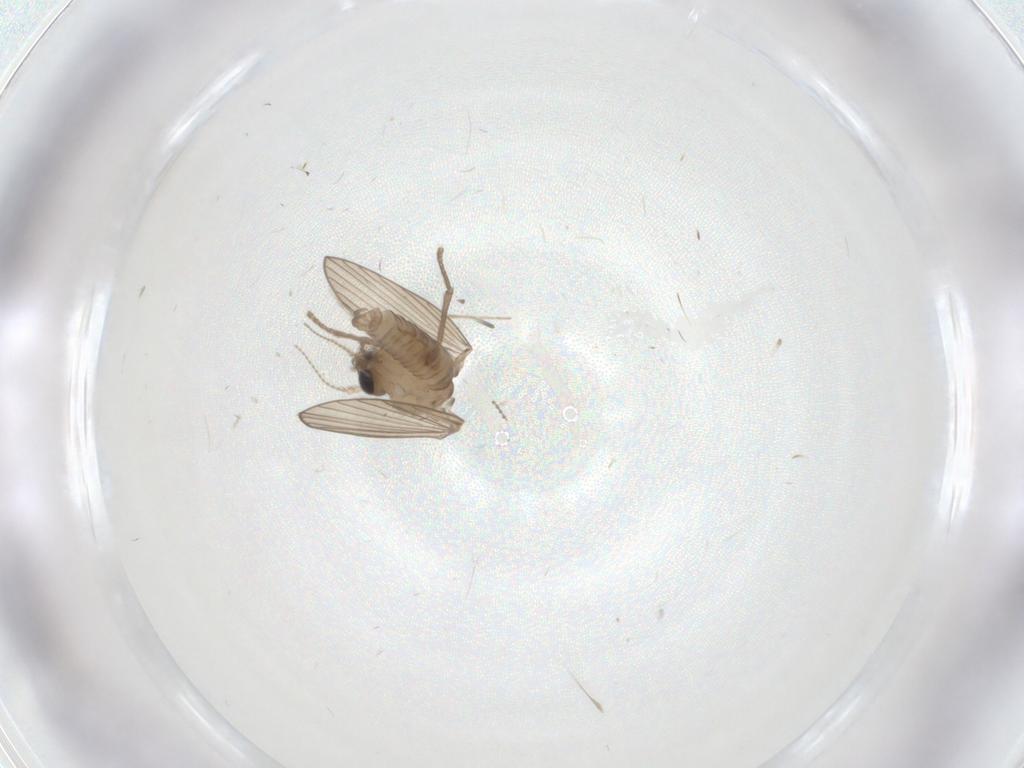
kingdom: Animalia
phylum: Arthropoda
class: Insecta
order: Diptera
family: Psychodidae
